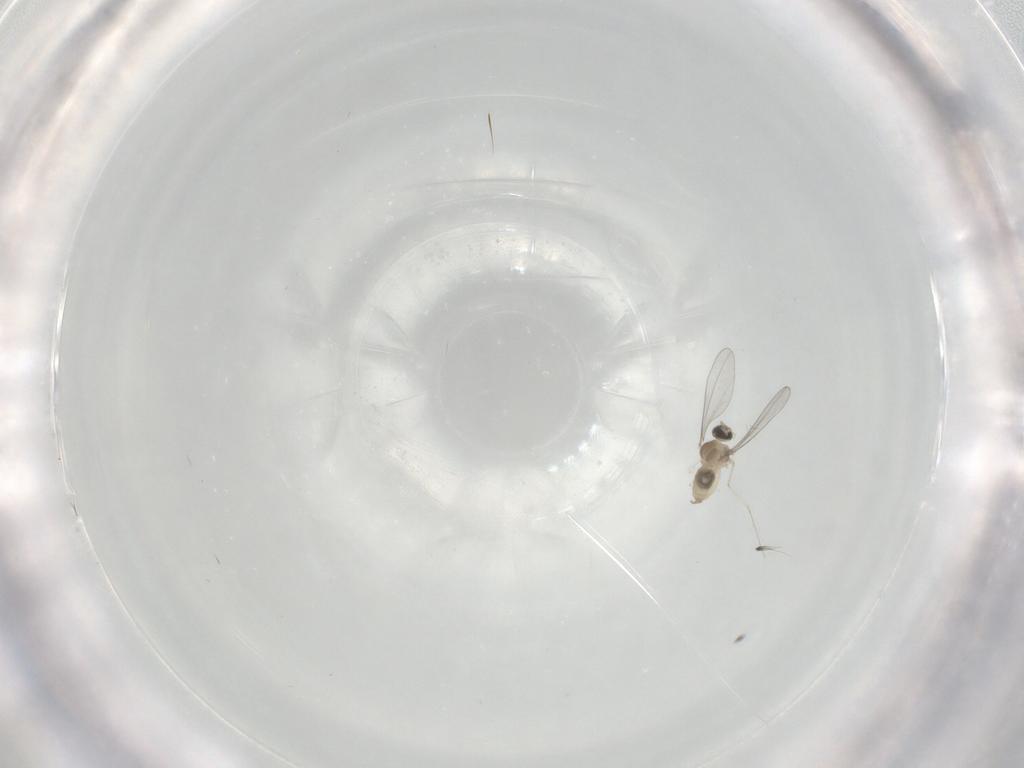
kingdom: Animalia
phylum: Arthropoda
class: Insecta
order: Diptera
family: Cecidomyiidae
